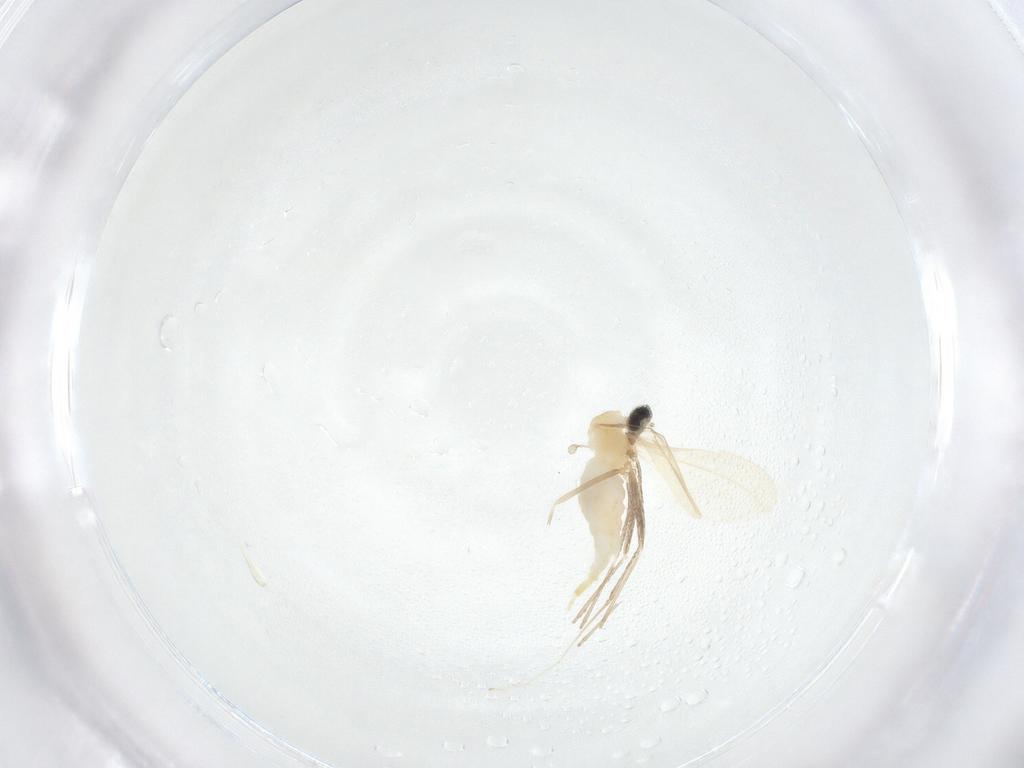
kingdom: Animalia
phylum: Arthropoda
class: Insecta
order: Diptera
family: Cecidomyiidae
